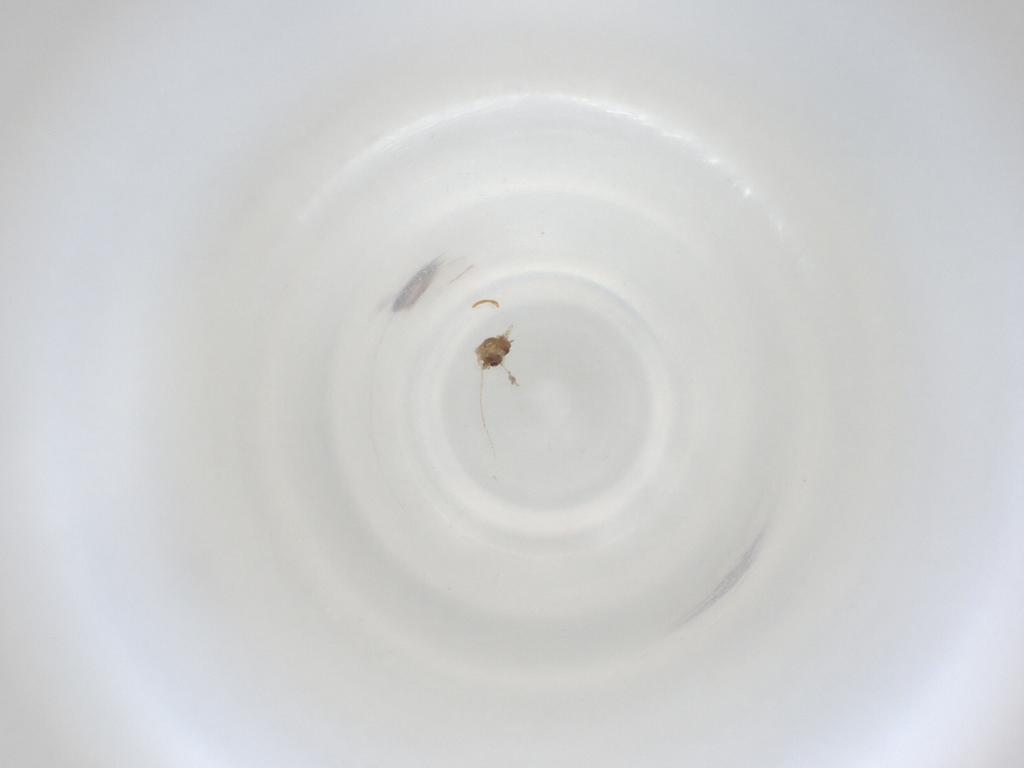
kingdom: Animalia
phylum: Arthropoda
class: Insecta
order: Diptera
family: Cecidomyiidae
